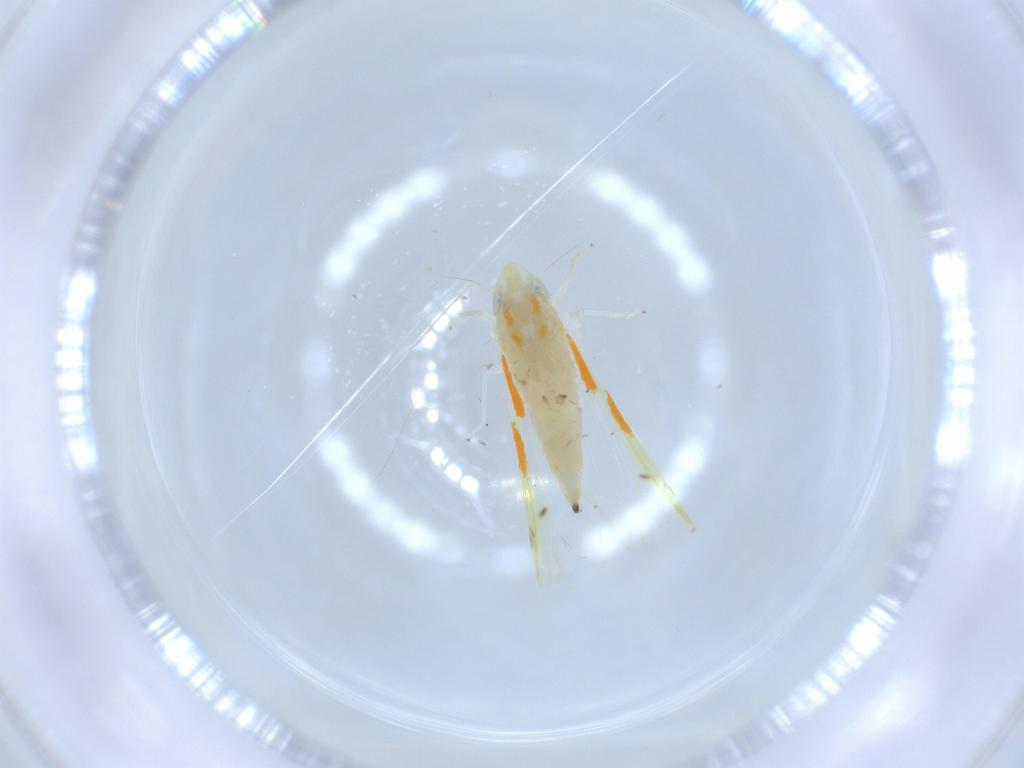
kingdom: Animalia
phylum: Arthropoda
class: Insecta
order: Hemiptera
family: Cicadellidae
